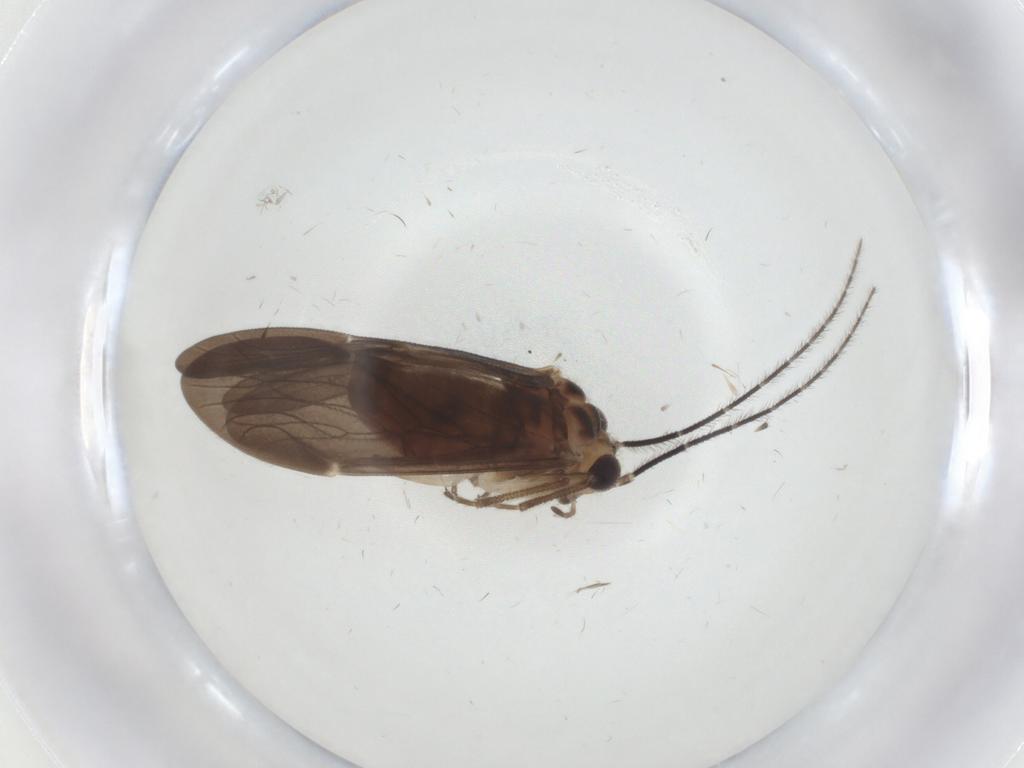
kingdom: Animalia
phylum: Arthropoda
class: Insecta
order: Psocodea
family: Amphipsocidae
